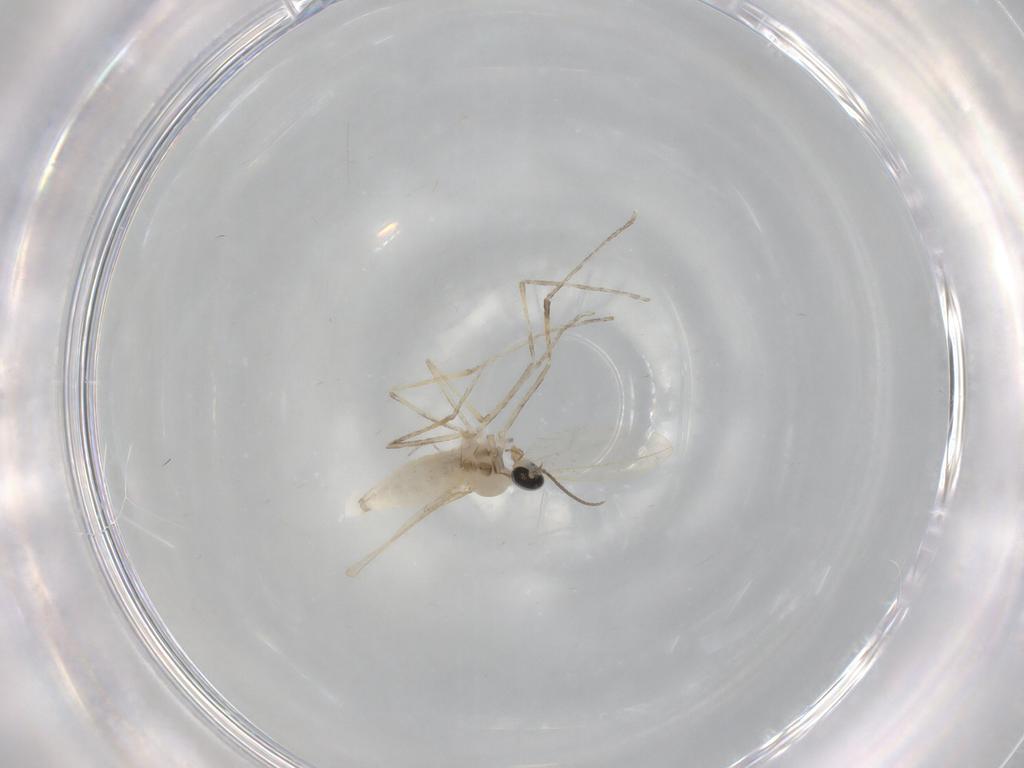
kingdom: Animalia
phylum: Arthropoda
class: Insecta
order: Diptera
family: Cecidomyiidae
